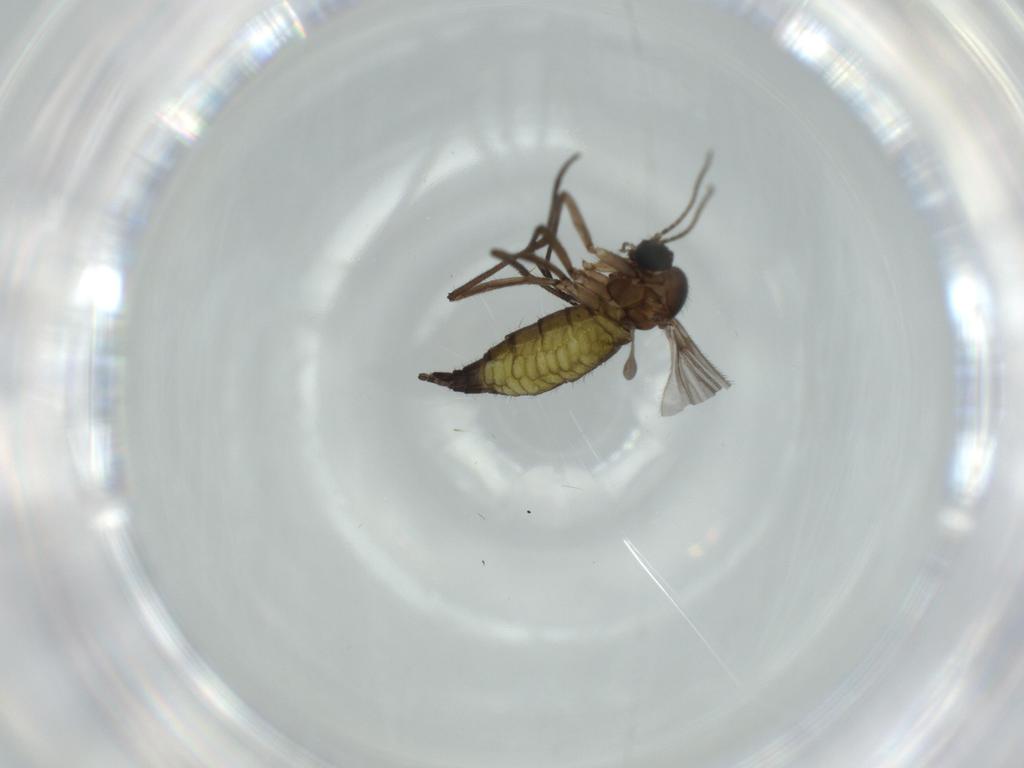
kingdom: Animalia
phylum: Arthropoda
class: Insecta
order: Diptera
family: Sciaridae
